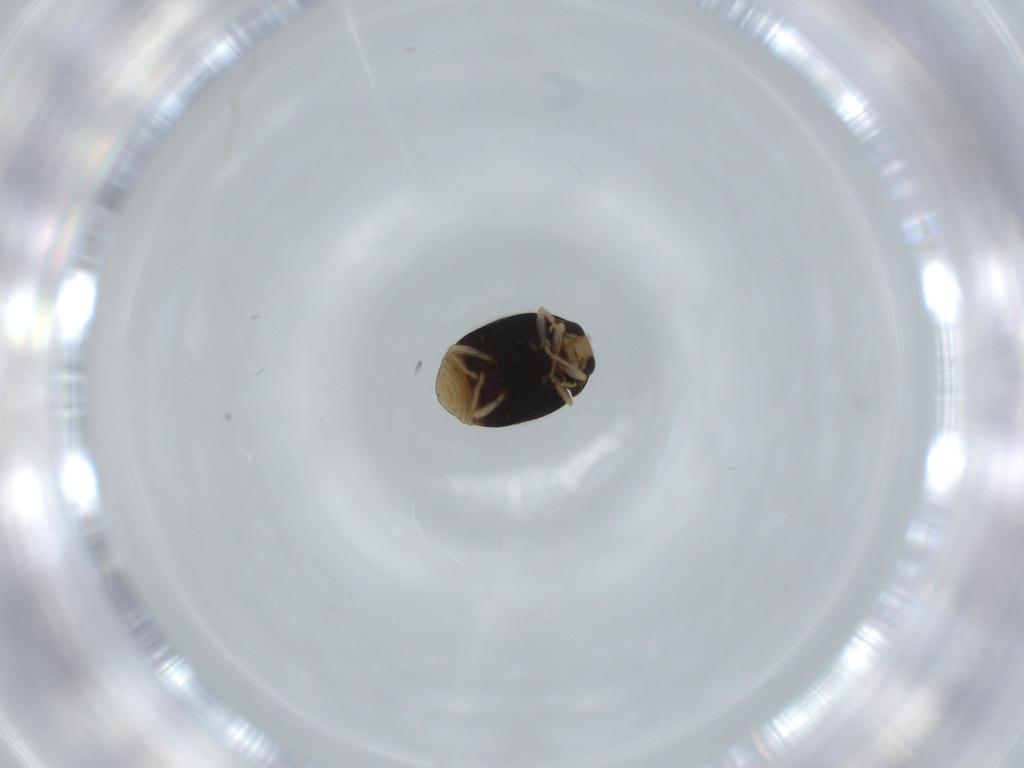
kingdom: Animalia
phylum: Arthropoda
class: Insecta
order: Coleoptera
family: Coccinellidae
